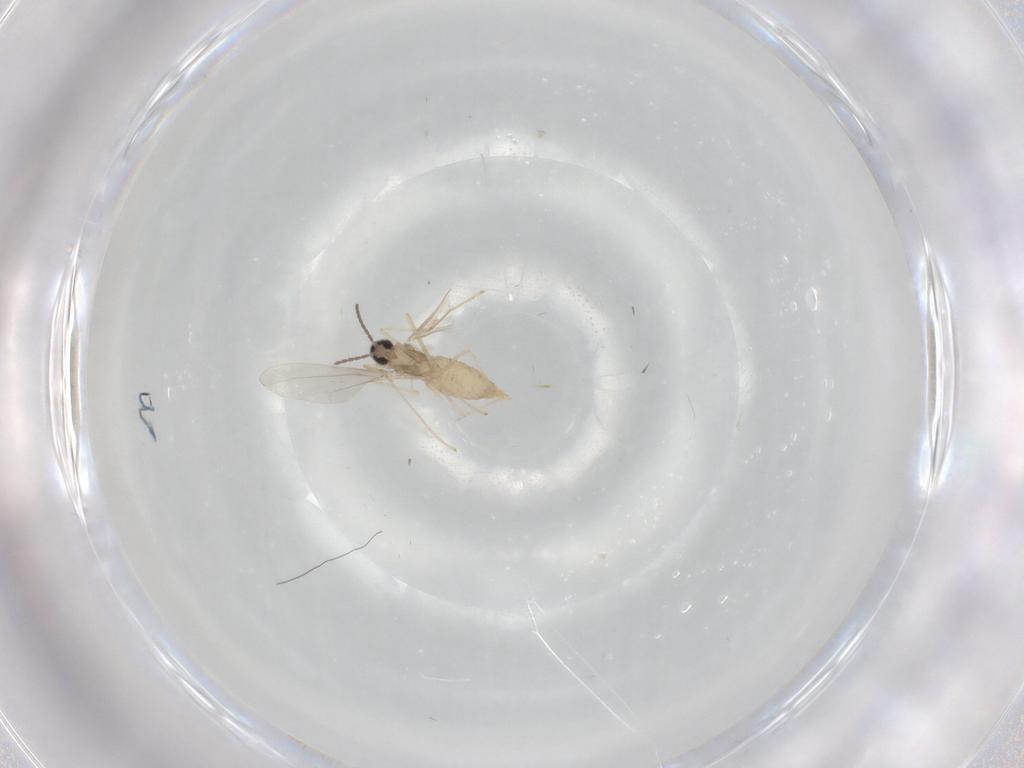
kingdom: Animalia
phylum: Arthropoda
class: Insecta
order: Diptera
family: Cecidomyiidae
